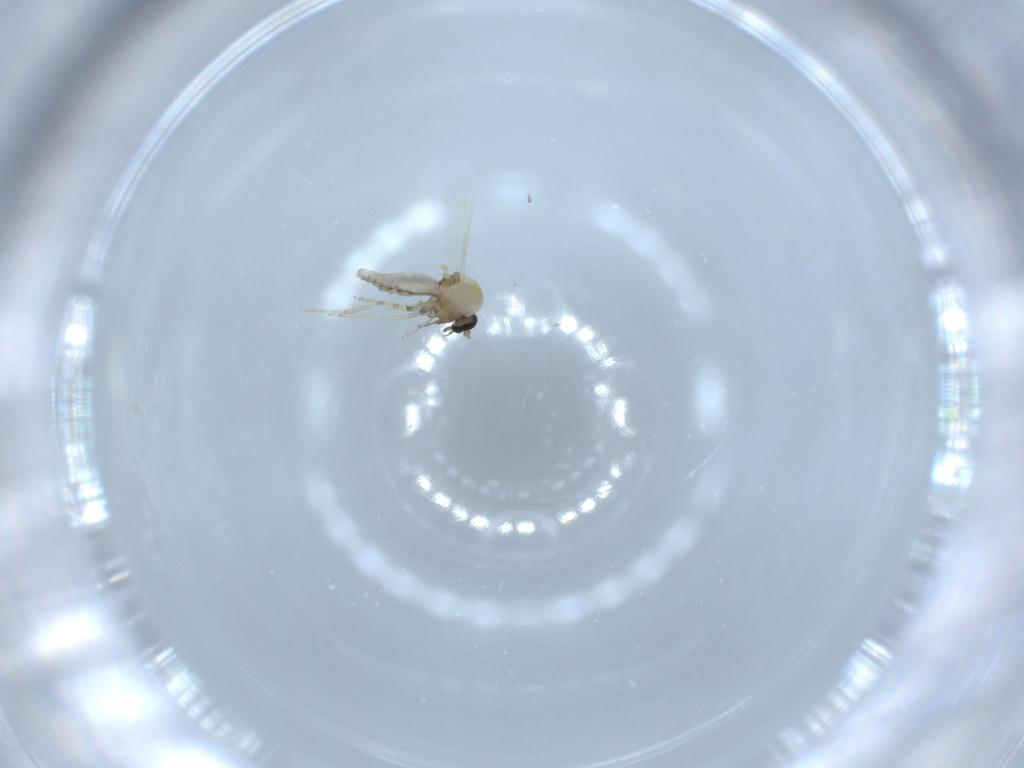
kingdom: Animalia
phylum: Arthropoda
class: Insecta
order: Diptera
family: Ceratopogonidae
